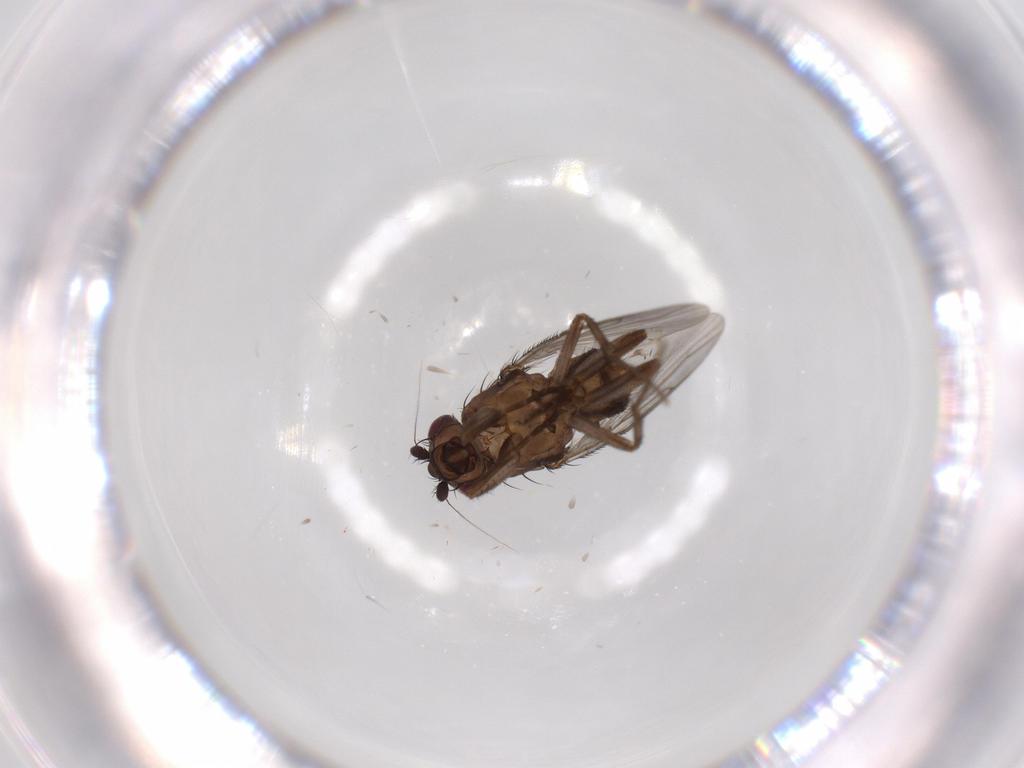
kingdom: Animalia
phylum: Arthropoda
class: Insecta
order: Diptera
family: Sphaeroceridae
